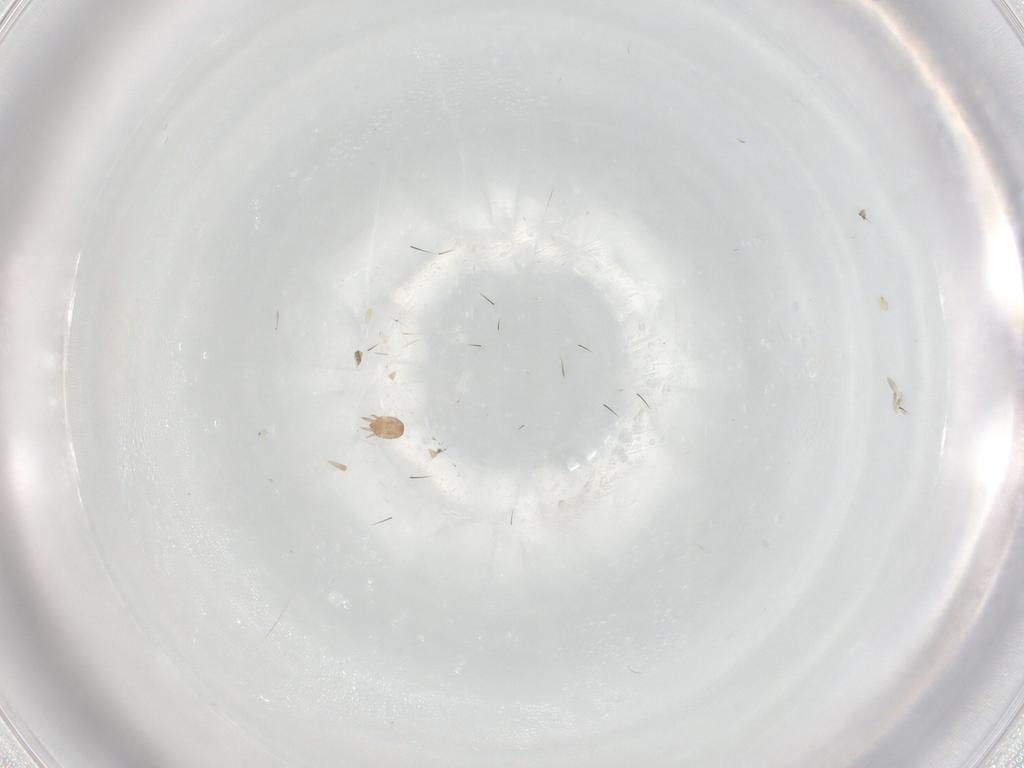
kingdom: Animalia
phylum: Arthropoda
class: Arachnida
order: Trombidiformes
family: Erythraeidae
